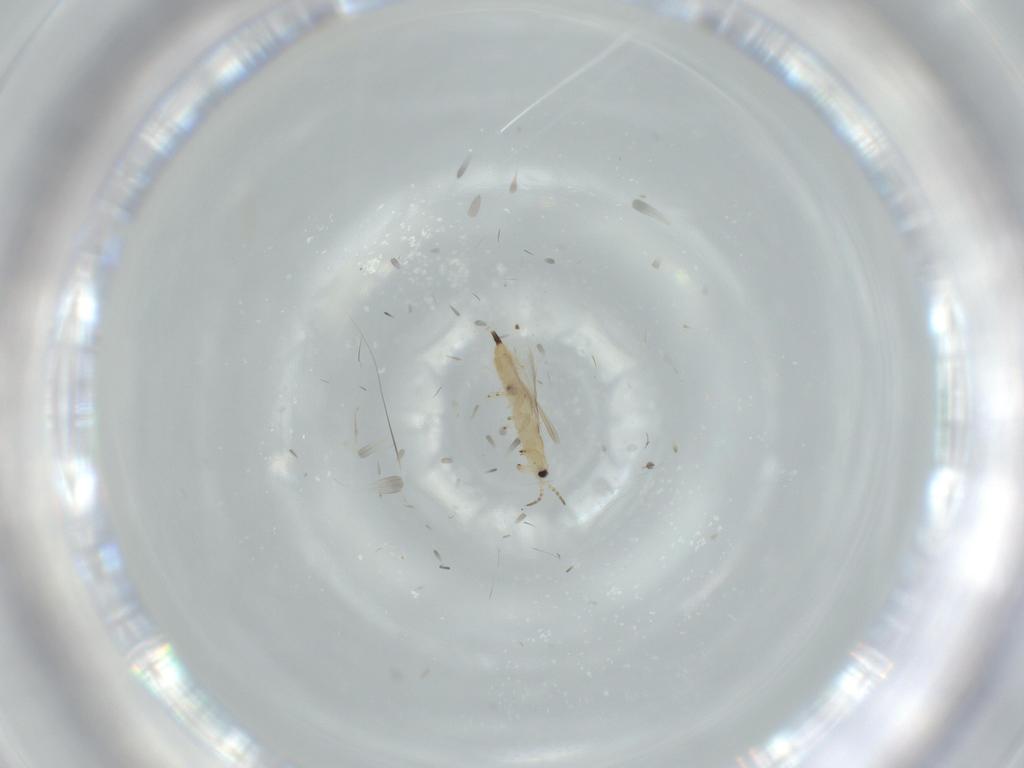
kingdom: Animalia
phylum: Arthropoda
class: Insecta
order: Thysanoptera
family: Phlaeothripidae
